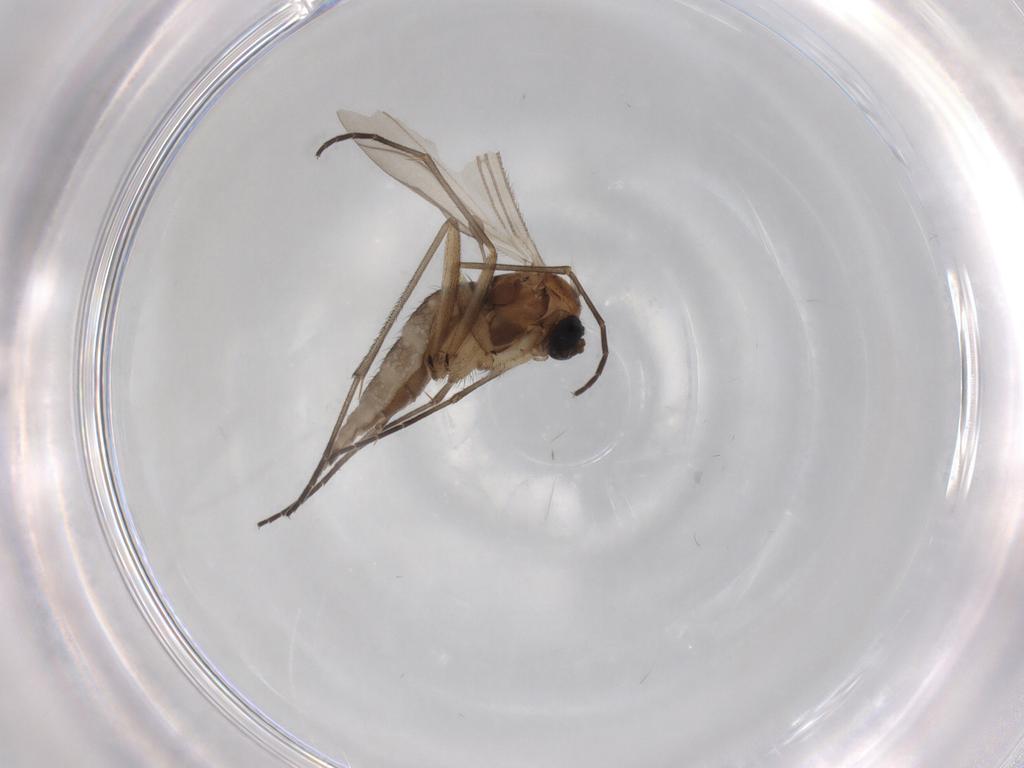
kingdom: Animalia
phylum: Arthropoda
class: Insecta
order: Diptera
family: Sciaridae
